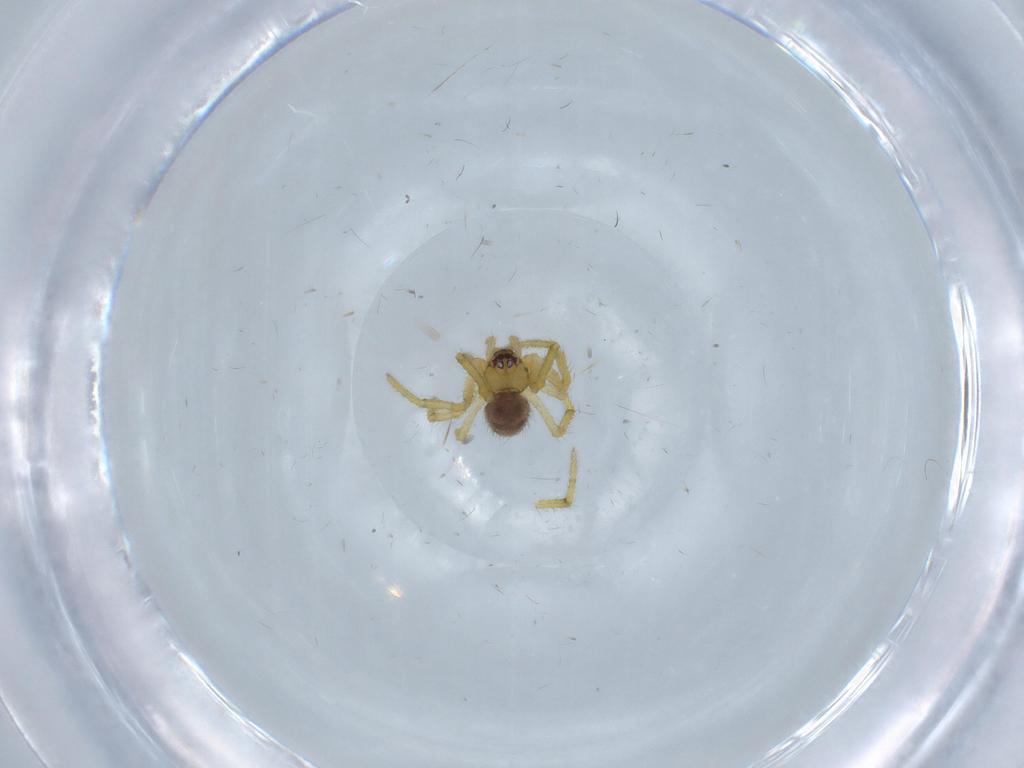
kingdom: Animalia
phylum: Arthropoda
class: Arachnida
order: Araneae
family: Theridiidae
